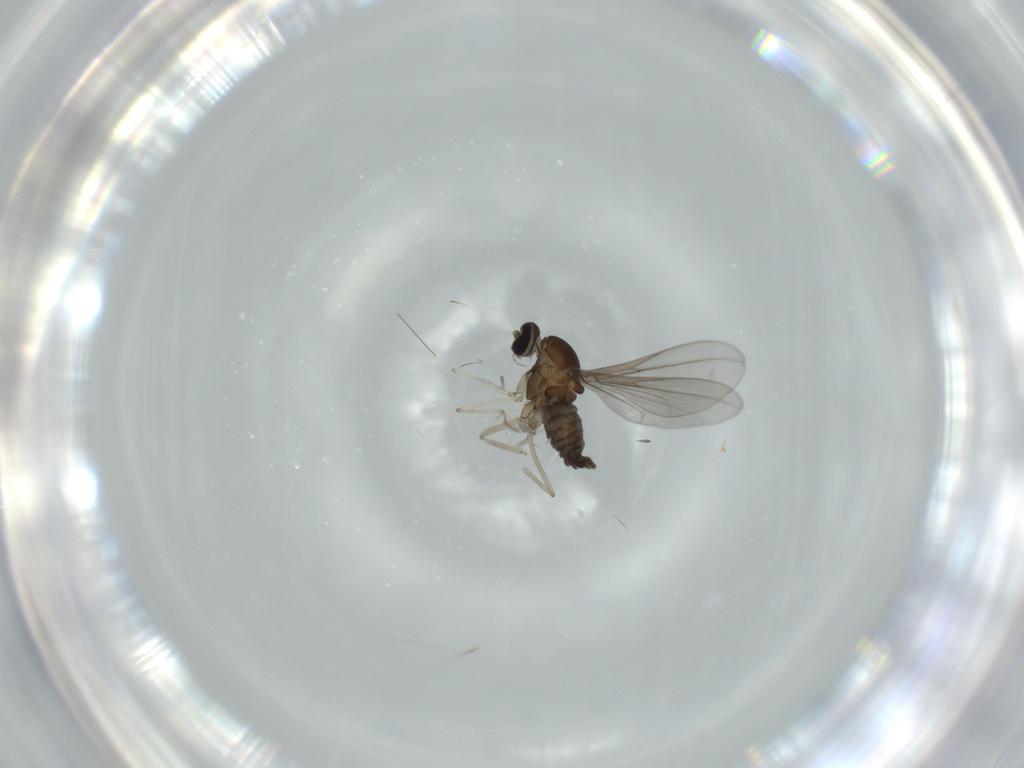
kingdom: Animalia
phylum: Arthropoda
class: Insecta
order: Diptera
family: Cecidomyiidae
